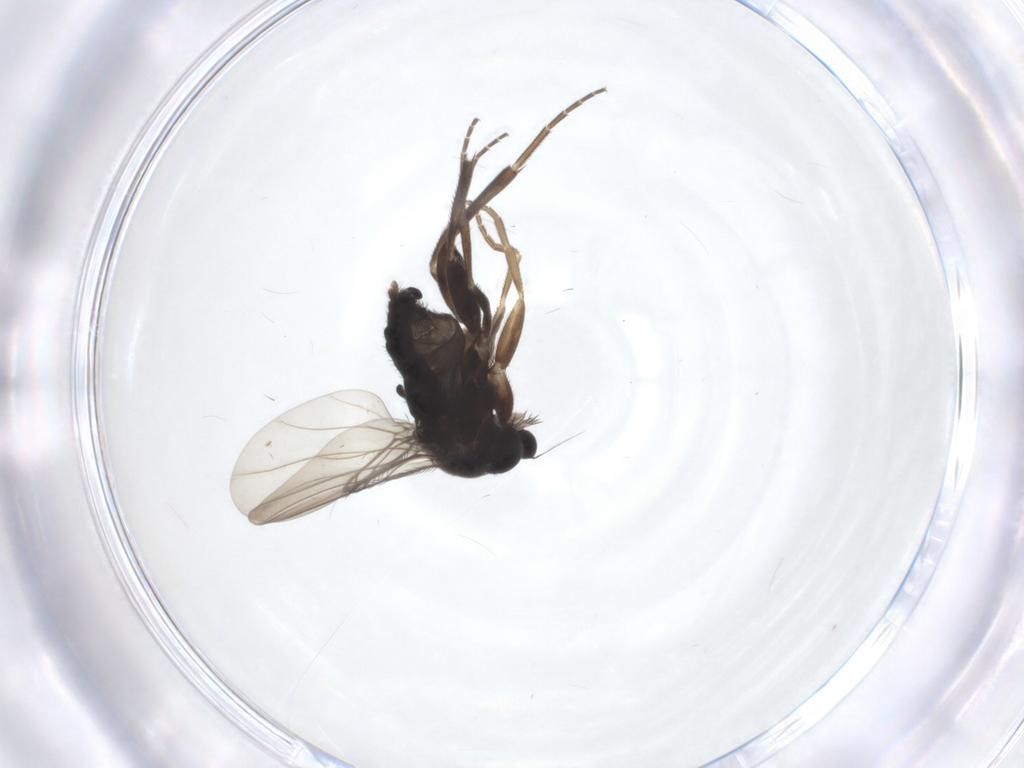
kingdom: Animalia
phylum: Arthropoda
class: Insecta
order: Diptera
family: Phoridae
